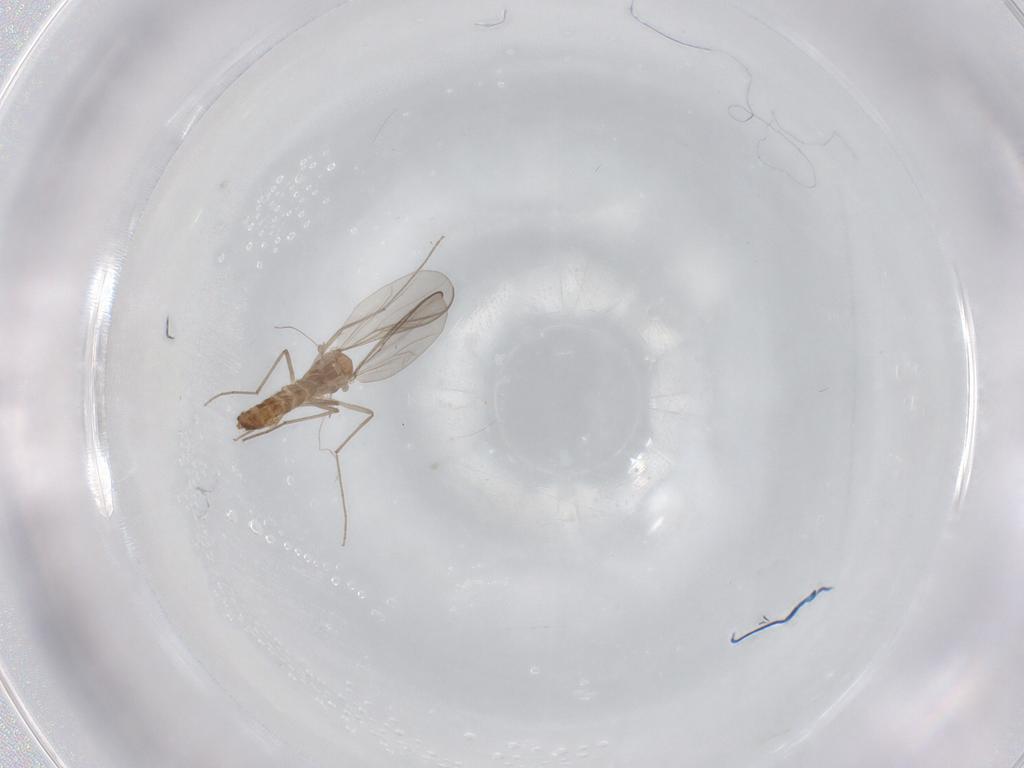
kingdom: Animalia
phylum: Arthropoda
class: Insecta
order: Diptera
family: Chironomidae
